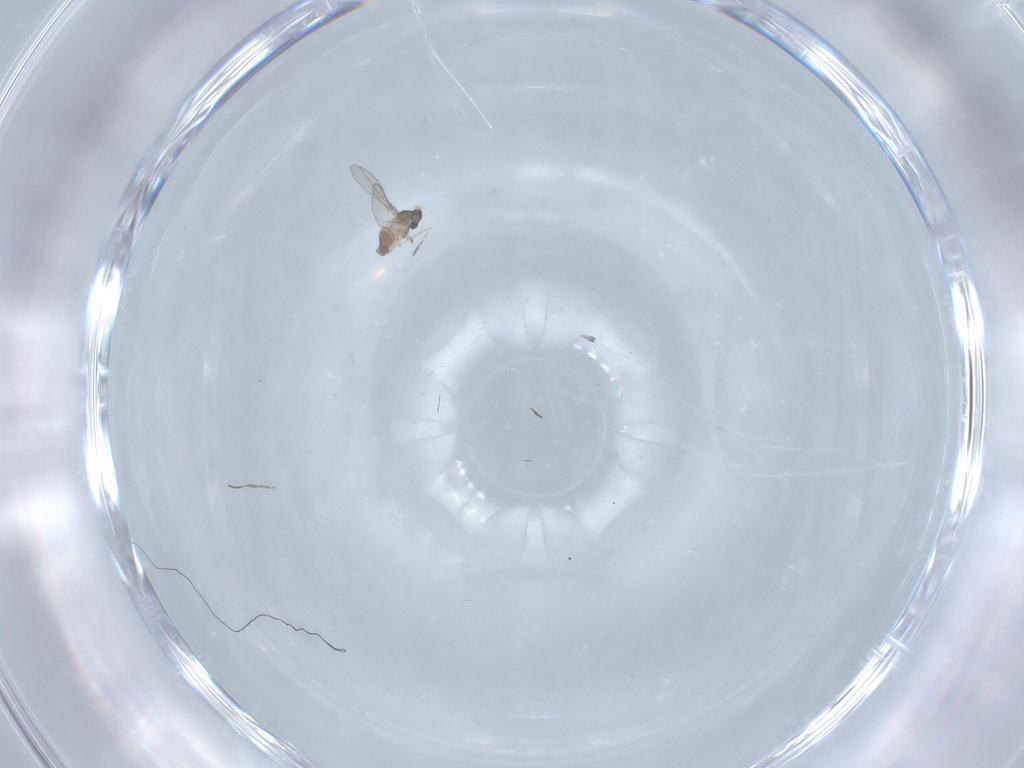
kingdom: Animalia
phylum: Arthropoda
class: Insecta
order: Diptera
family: Cecidomyiidae
